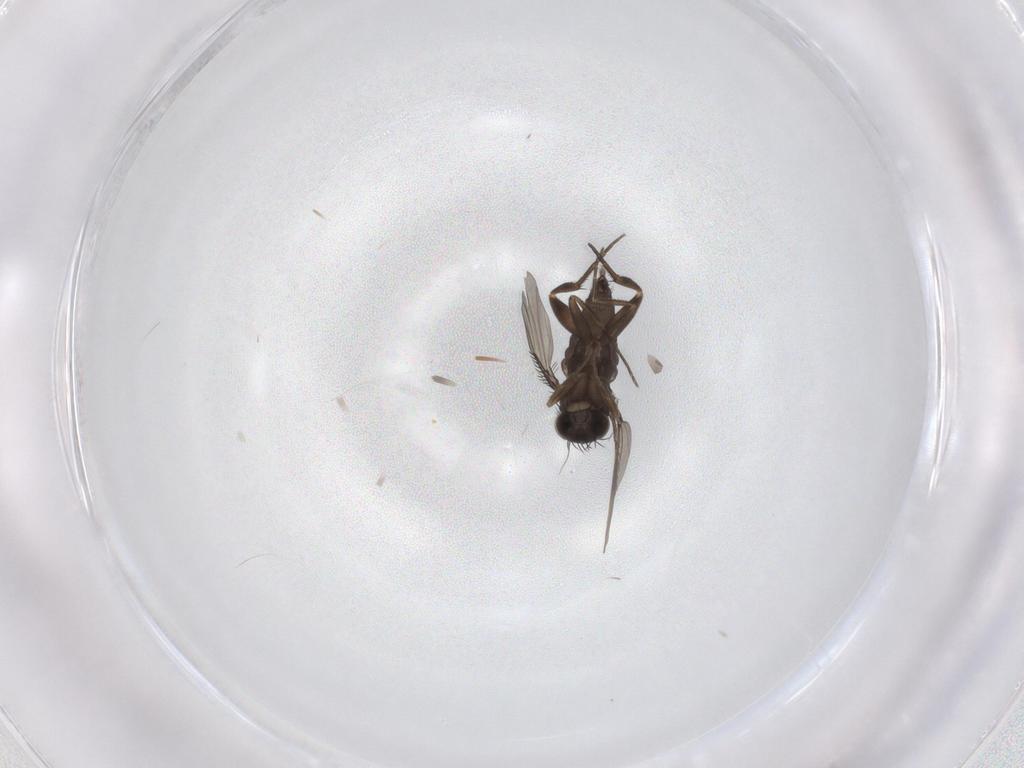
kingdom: Animalia
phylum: Arthropoda
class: Insecta
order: Diptera
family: Phoridae
